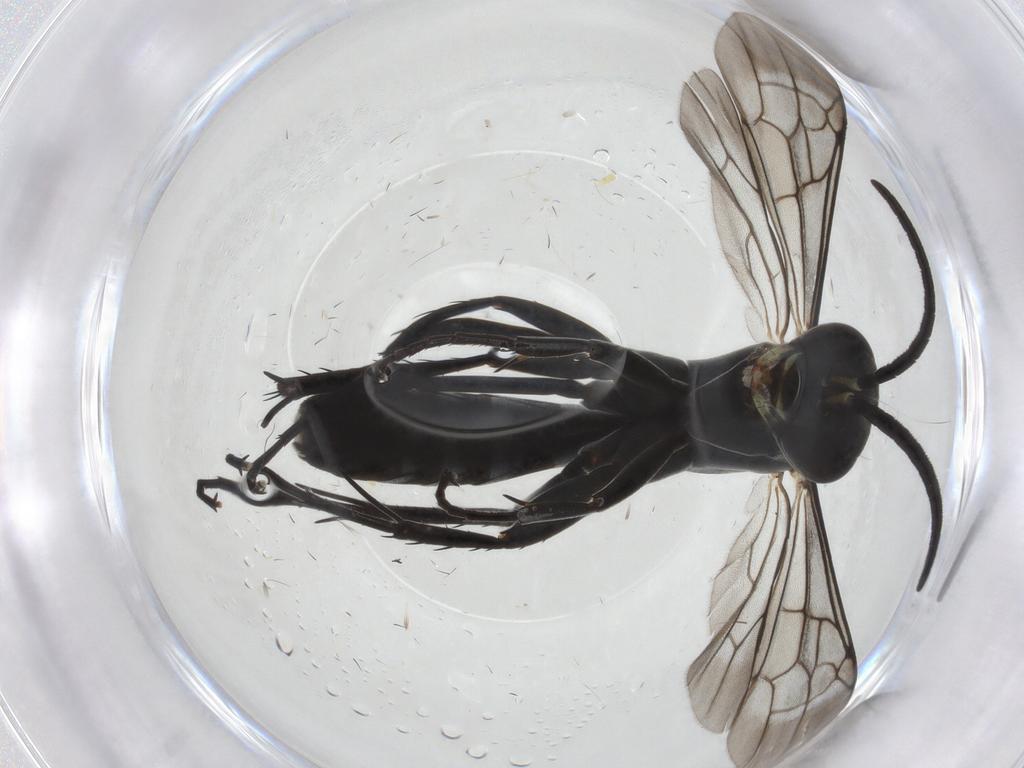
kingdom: Animalia
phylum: Arthropoda
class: Insecta
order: Hymenoptera
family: Pompilidae
